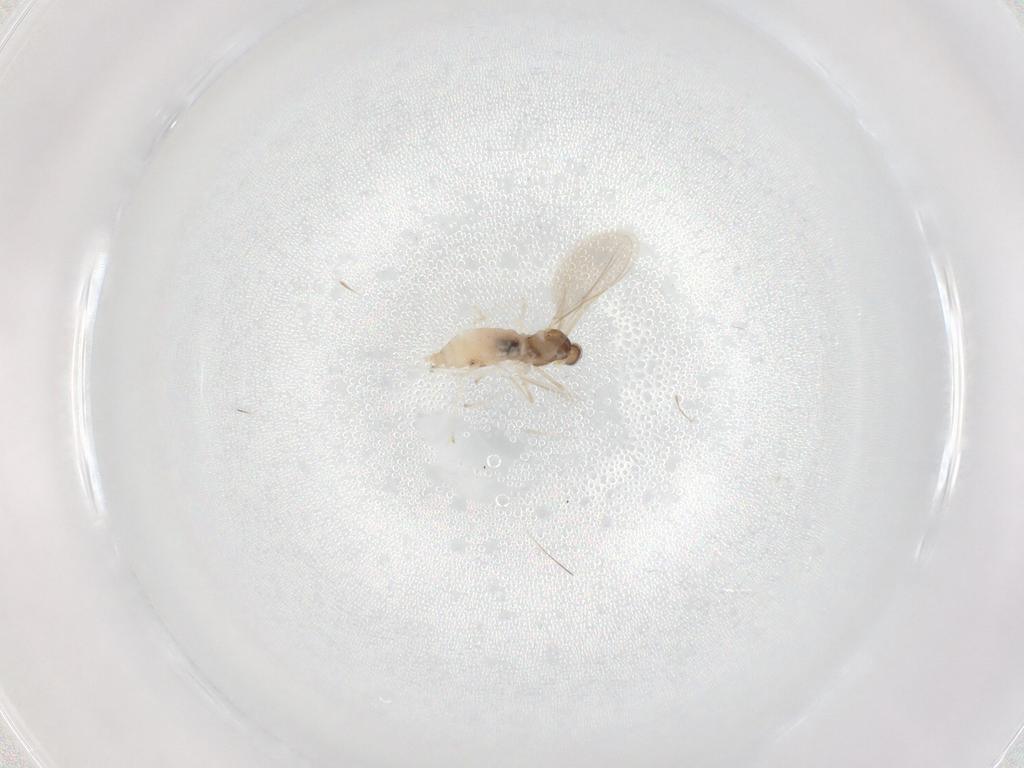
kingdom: Animalia
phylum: Arthropoda
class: Insecta
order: Diptera
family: Cecidomyiidae
